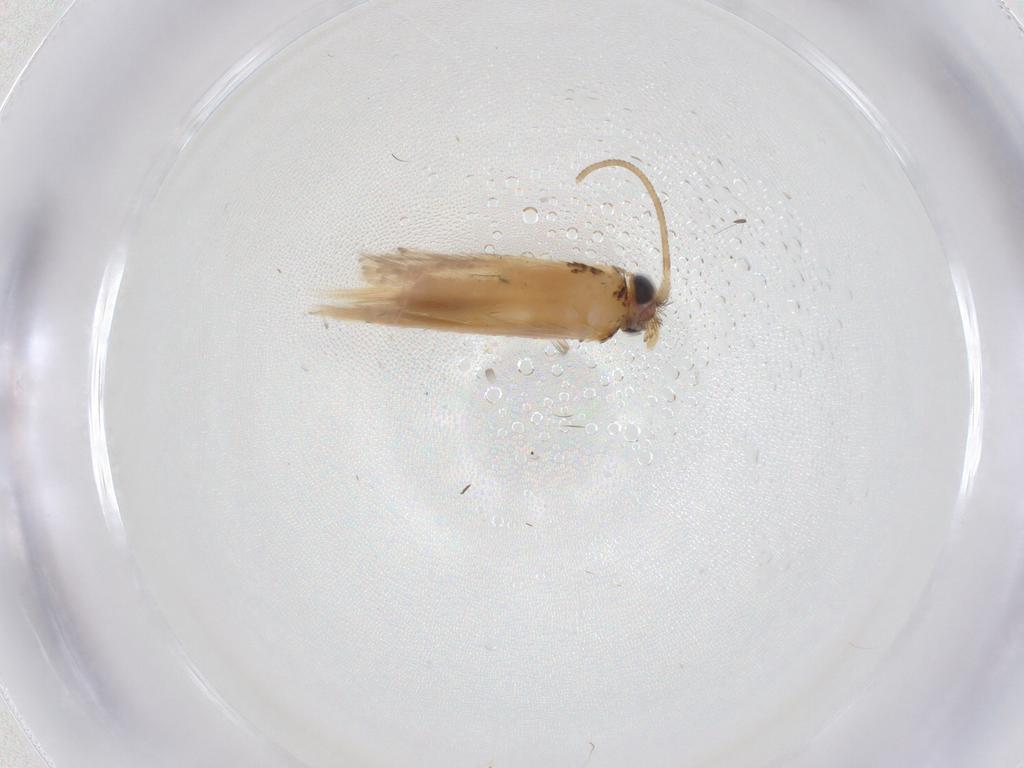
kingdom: Animalia
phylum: Arthropoda
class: Insecta
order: Lepidoptera
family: Nepticulidae
